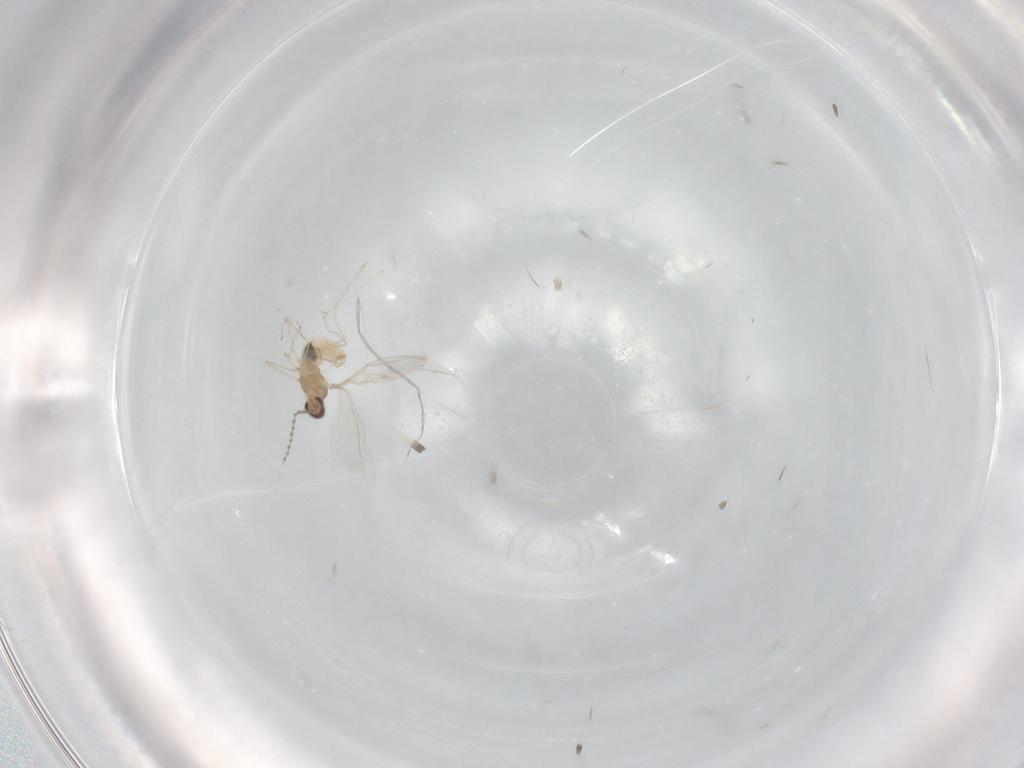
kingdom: Animalia
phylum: Arthropoda
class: Insecta
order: Diptera
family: Cecidomyiidae
